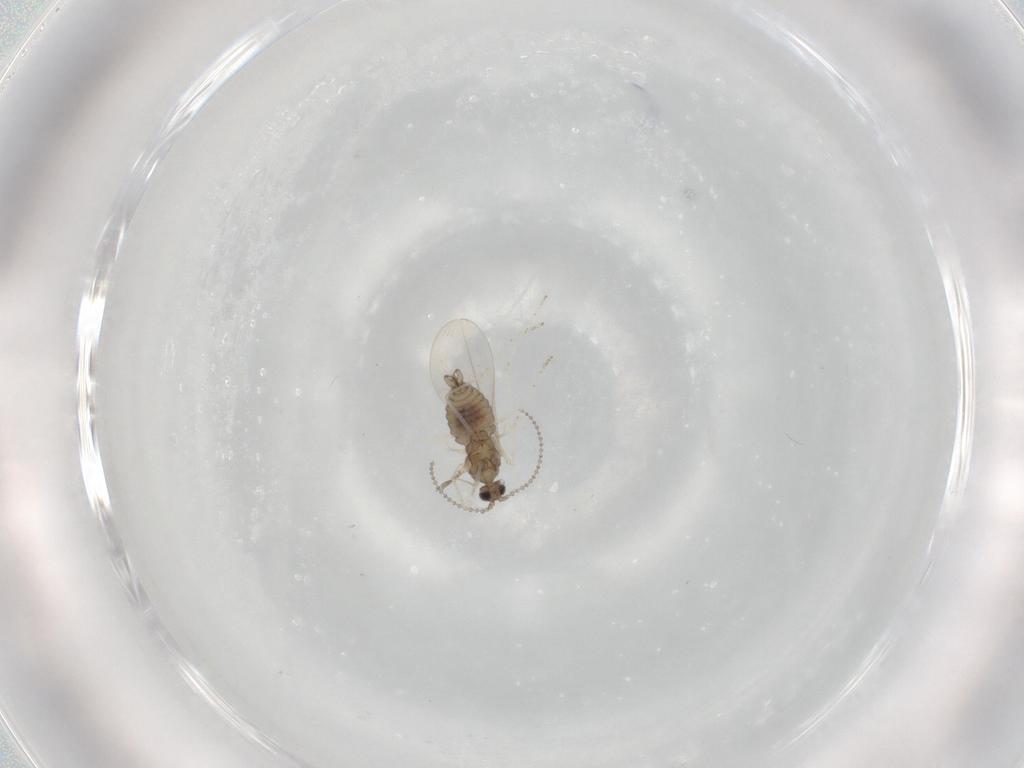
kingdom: Animalia
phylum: Arthropoda
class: Insecta
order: Diptera
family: Cecidomyiidae
